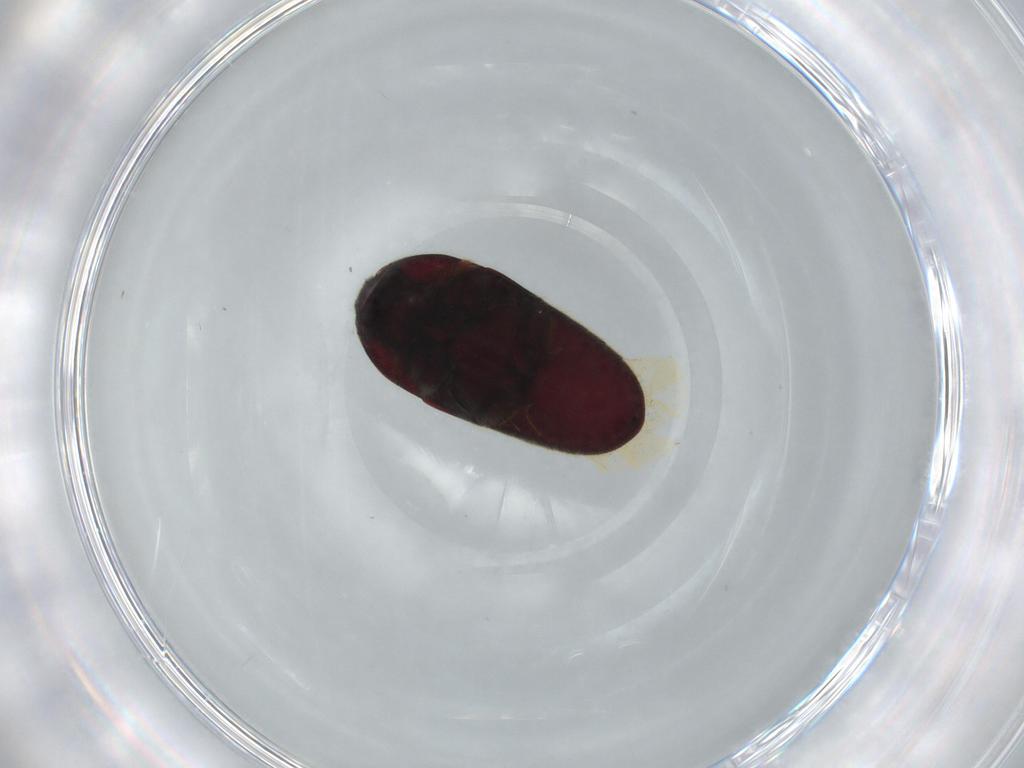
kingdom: Animalia
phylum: Arthropoda
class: Insecta
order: Coleoptera
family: Throscidae
